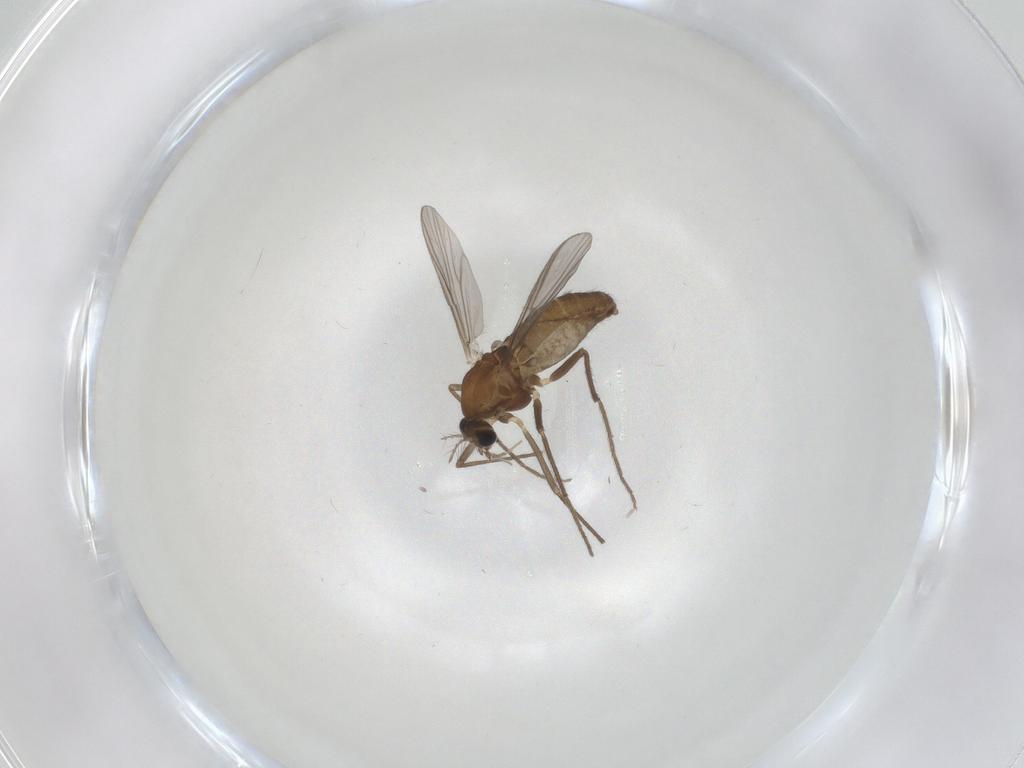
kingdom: Animalia
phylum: Arthropoda
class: Insecta
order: Diptera
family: Chironomidae
